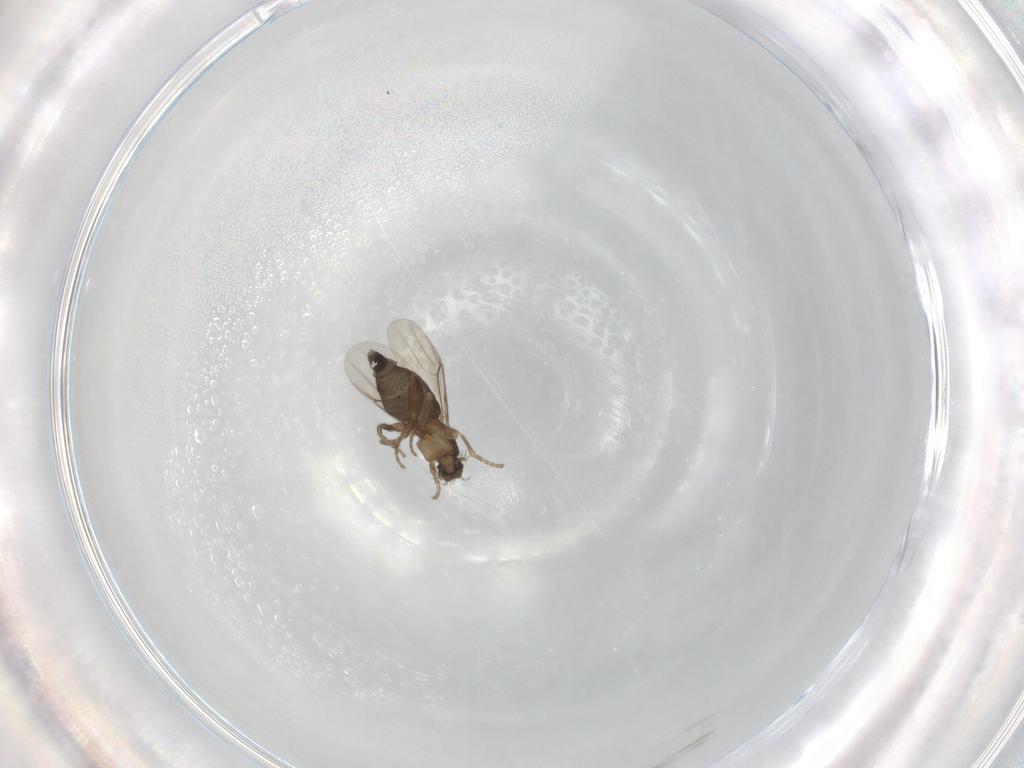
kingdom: Animalia
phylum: Arthropoda
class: Insecta
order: Diptera
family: Phoridae
